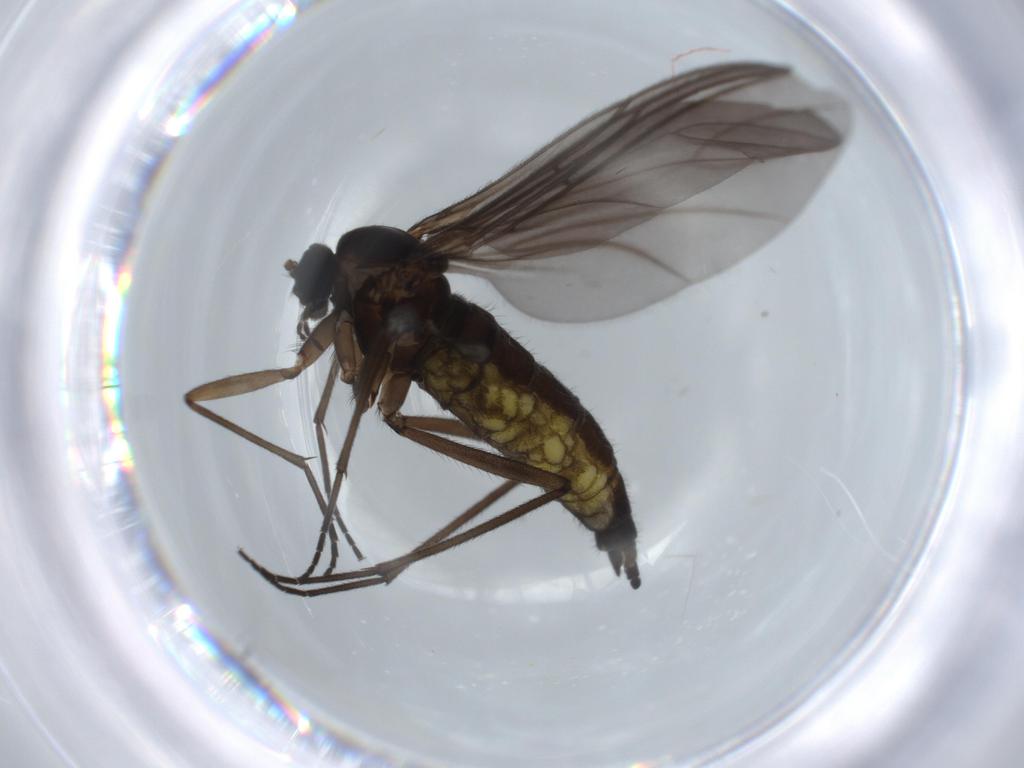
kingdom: Animalia
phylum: Arthropoda
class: Insecta
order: Diptera
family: Sciaridae
